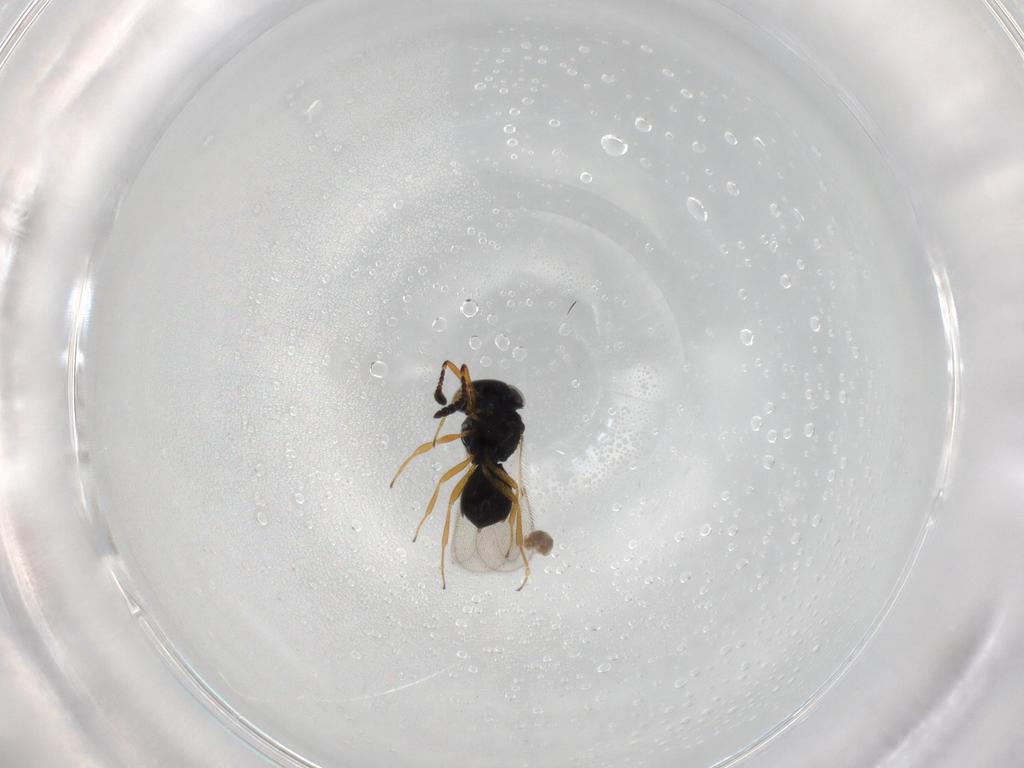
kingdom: Animalia
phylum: Arthropoda
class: Insecta
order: Hymenoptera
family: Scelionidae
